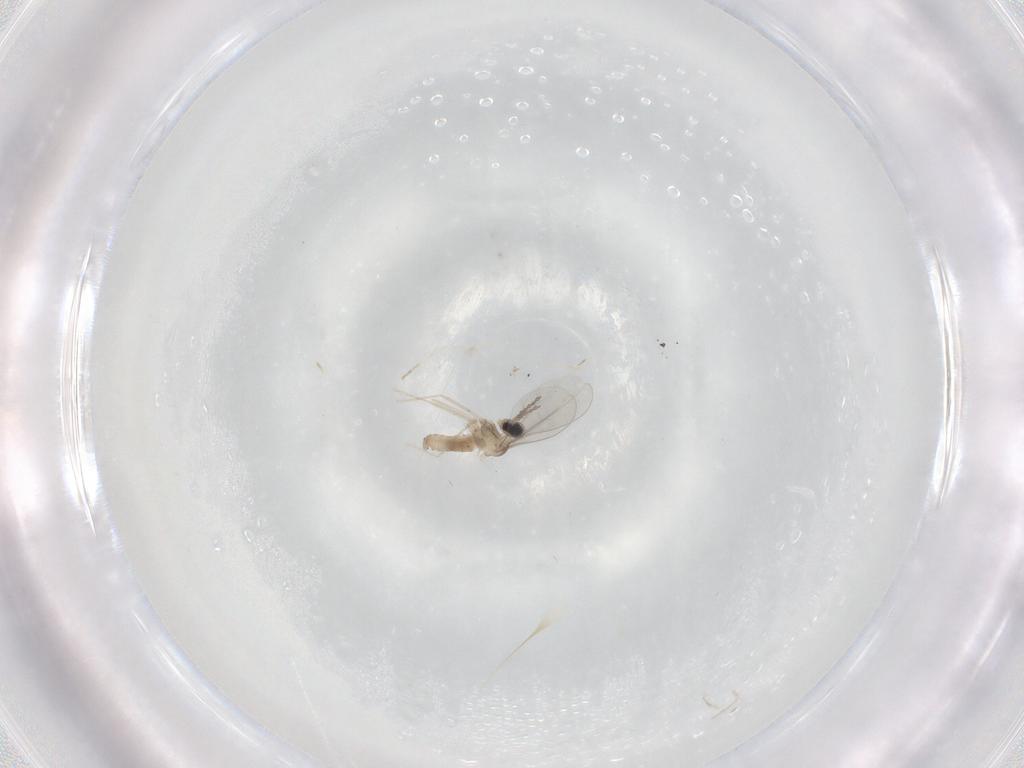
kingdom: Animalia
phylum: Arthropoda
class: Insecta
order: Diptera
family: Cecidomyiidae
